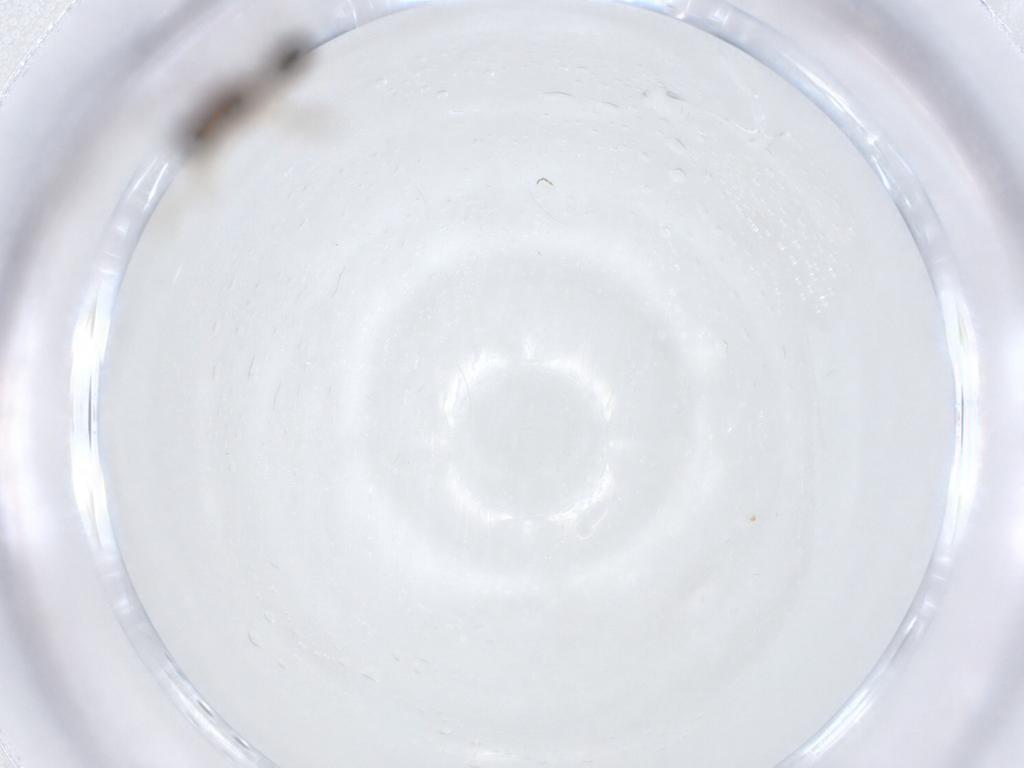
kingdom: Animalia
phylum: Arthropoda
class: Insecta
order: Diptera
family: Chironomidae
